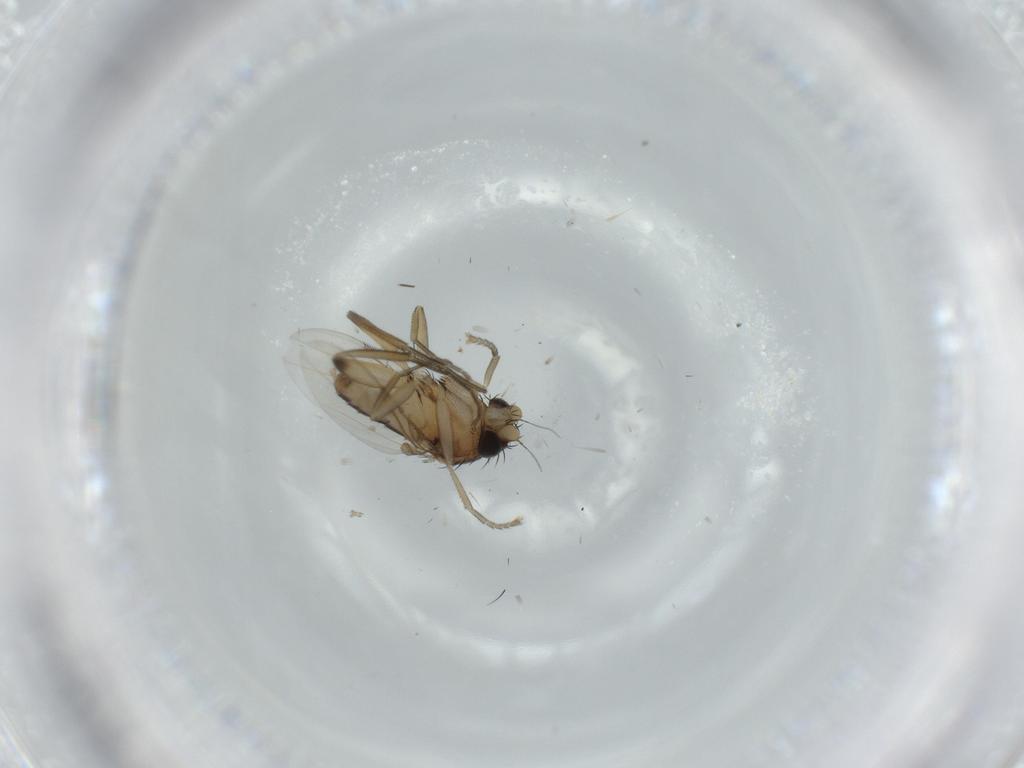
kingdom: Animalia
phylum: Arthropoda
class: Insecta
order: Diptera
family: Phoridae
